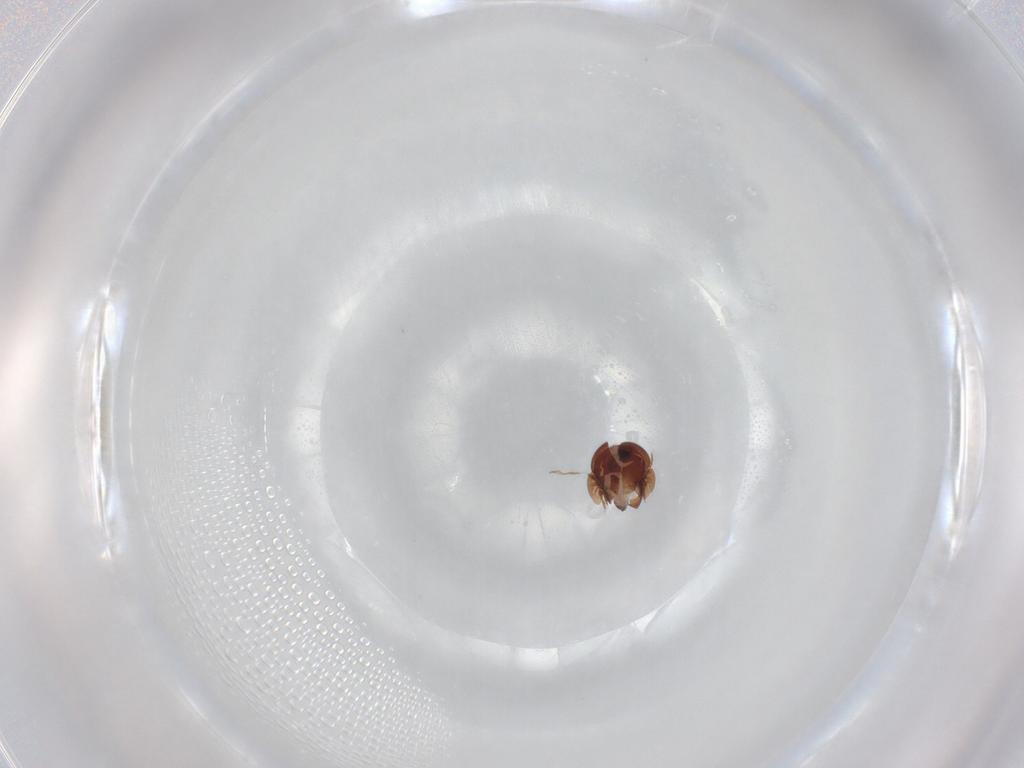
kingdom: Animalia
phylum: Arthropoda
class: Arachnida
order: Sarcoptiformes
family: Galumnidae
